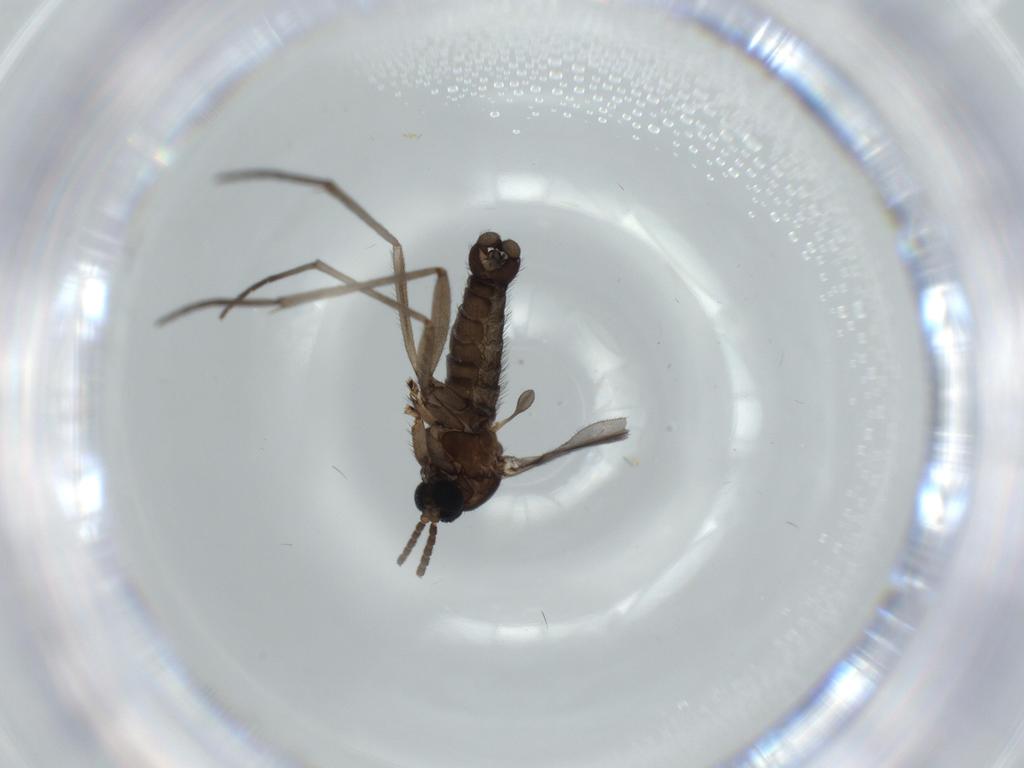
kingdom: Animalia
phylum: Arthropoda
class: Insecta
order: Diptera
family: Sciaridae
